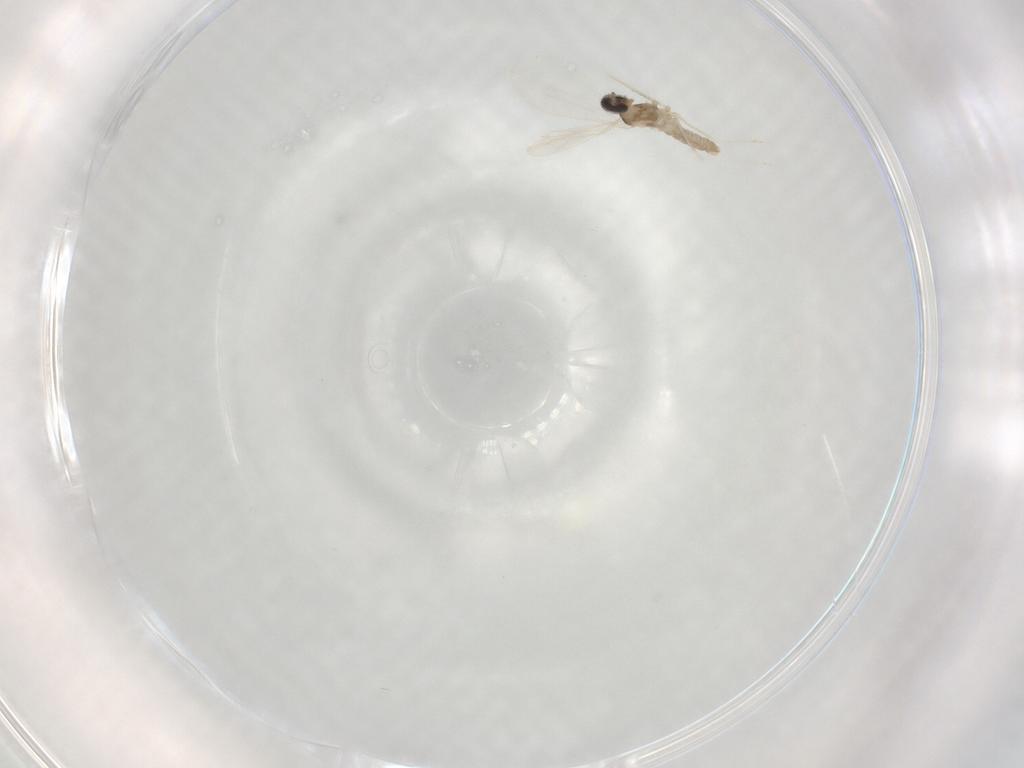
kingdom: Animalia
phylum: Arthropoda
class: Insecta
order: Diptera
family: Cecidomyiidae
